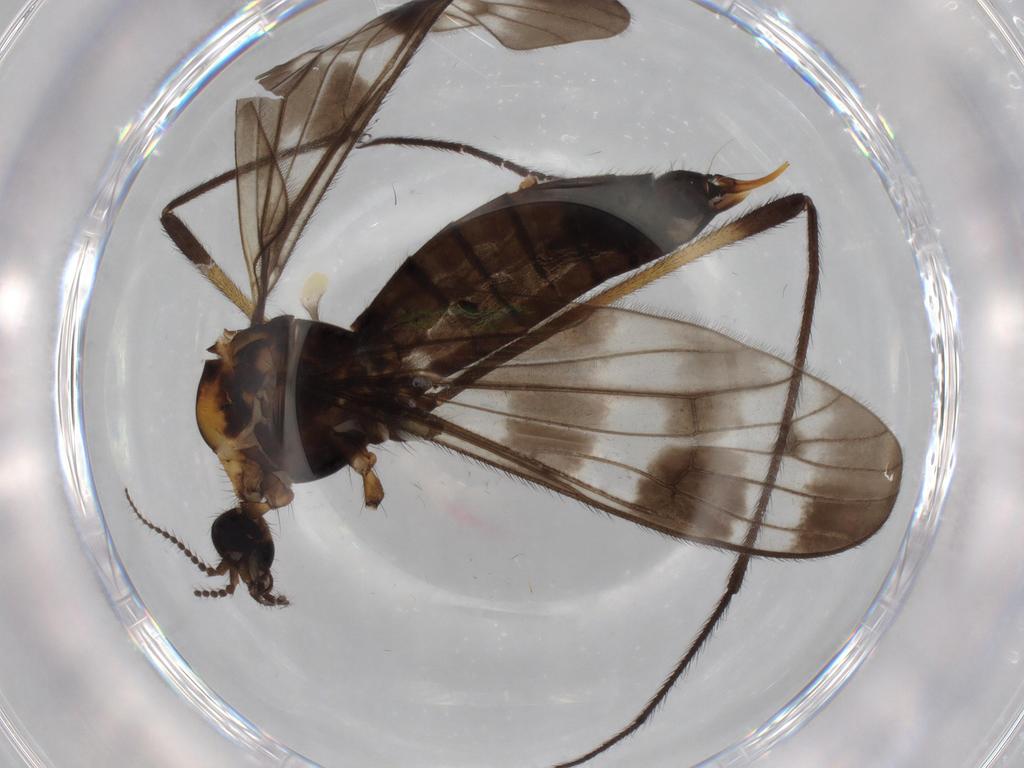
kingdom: Animalia
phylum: Arthropoda
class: Insecta
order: Diptera
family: Limoniidae
